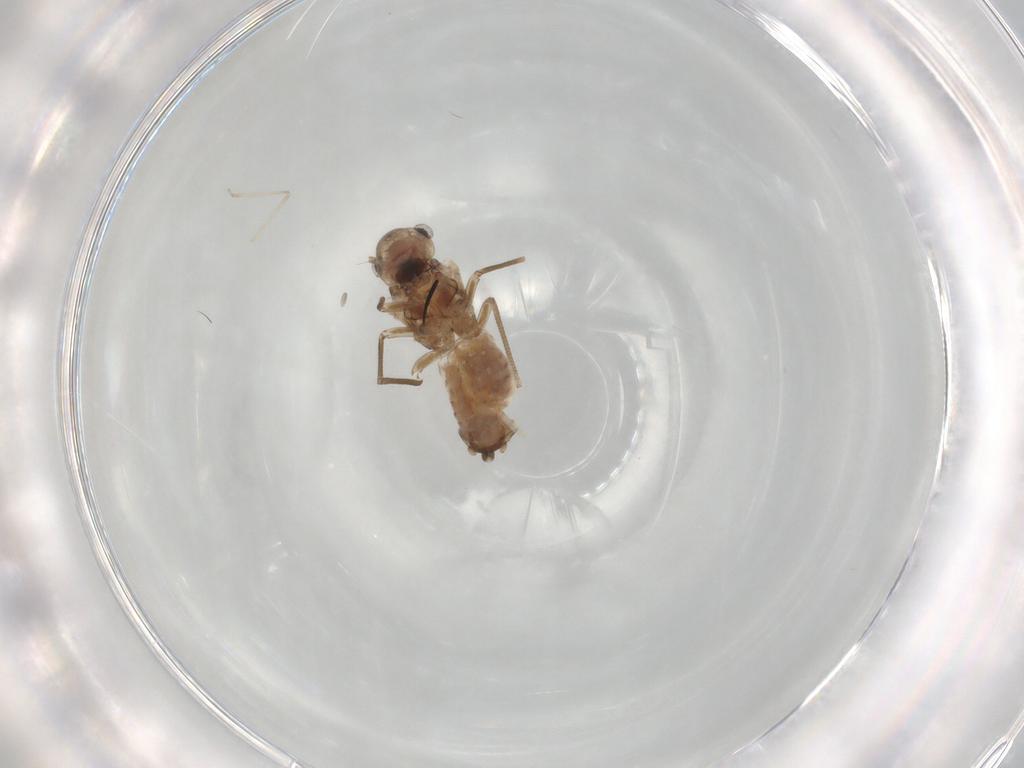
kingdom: Animalia
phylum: Arthropoda
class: Insecta
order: Psocodea
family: Peripsocidae
